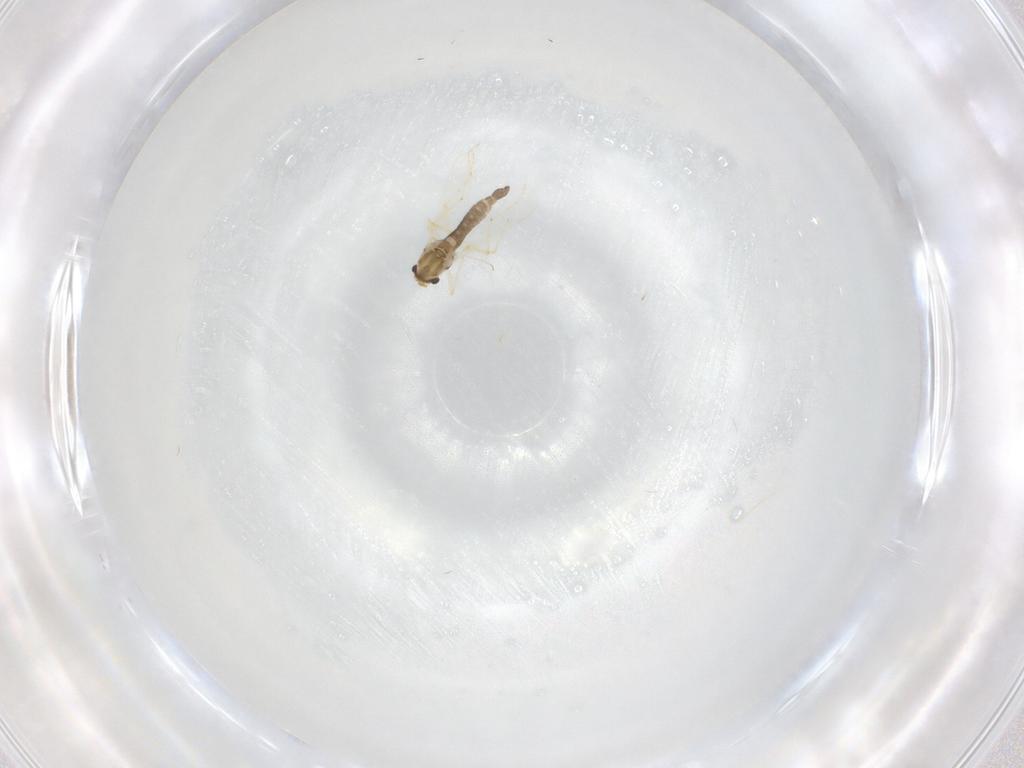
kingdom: Animalia
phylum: Arthropoda
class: Insecta
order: Diptera
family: Chironomidae
